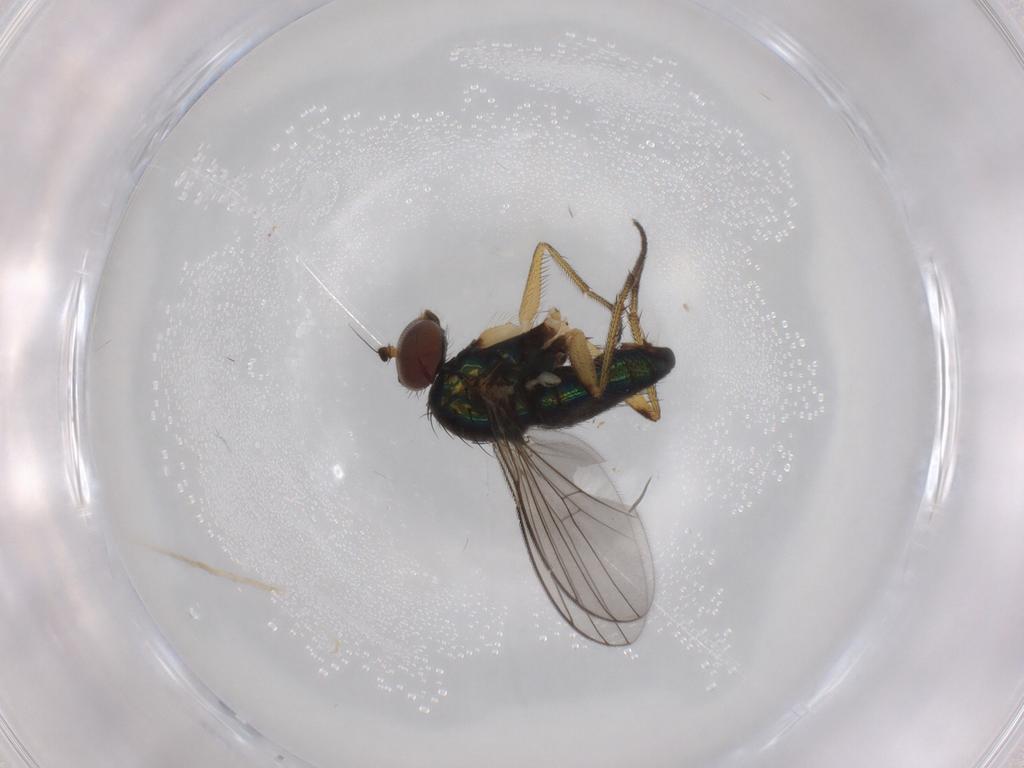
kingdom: Animalia
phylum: Arthropoda
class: Insecta
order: Diptera
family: Dolichopodidae
